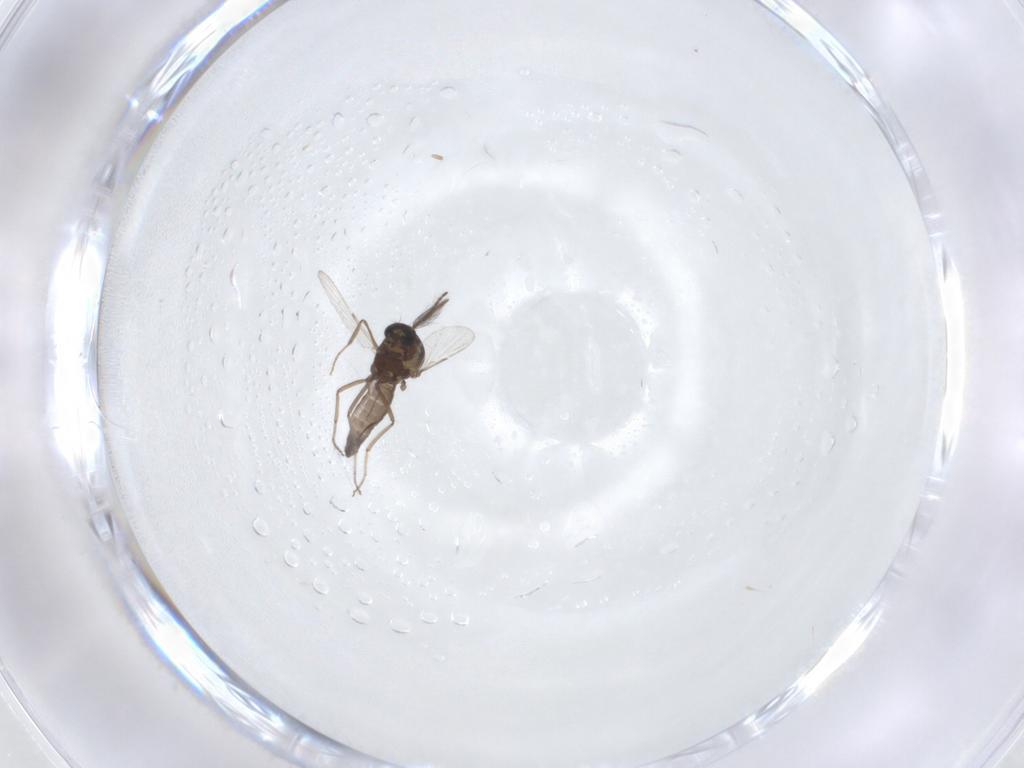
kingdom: Animalia
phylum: Arthropoda
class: Insecta
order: Diptera
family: Ceratopogonidae
